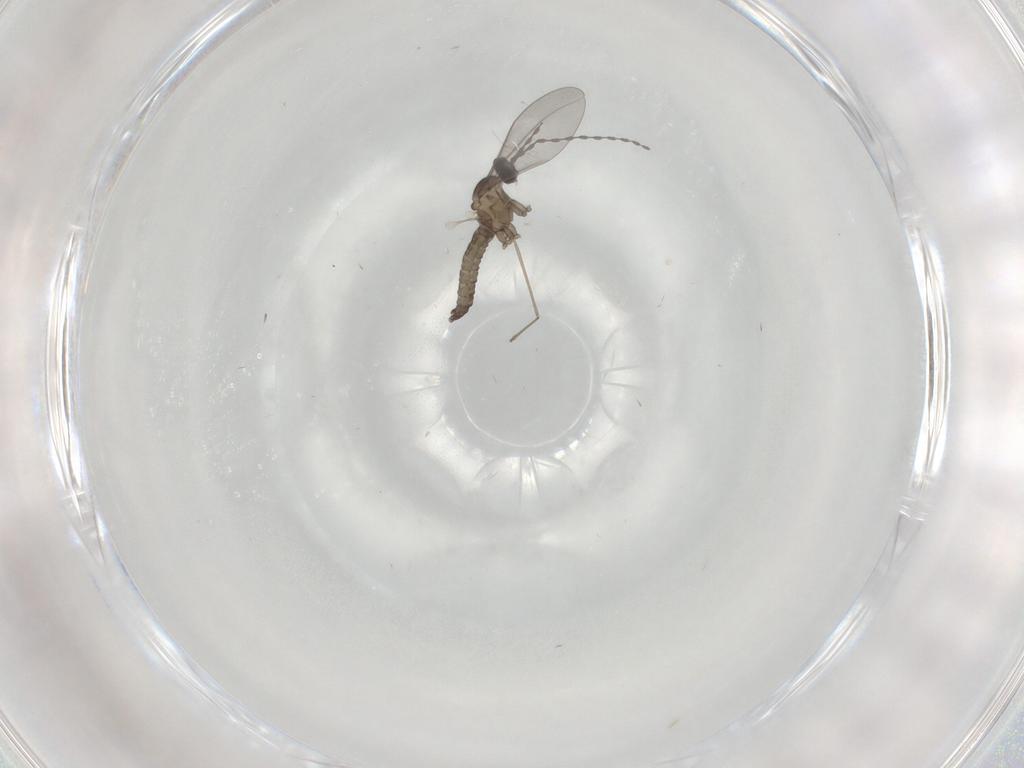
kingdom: Animalia
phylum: Arthropoda
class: Insecta
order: Diptera
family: Cecidomyiidae
